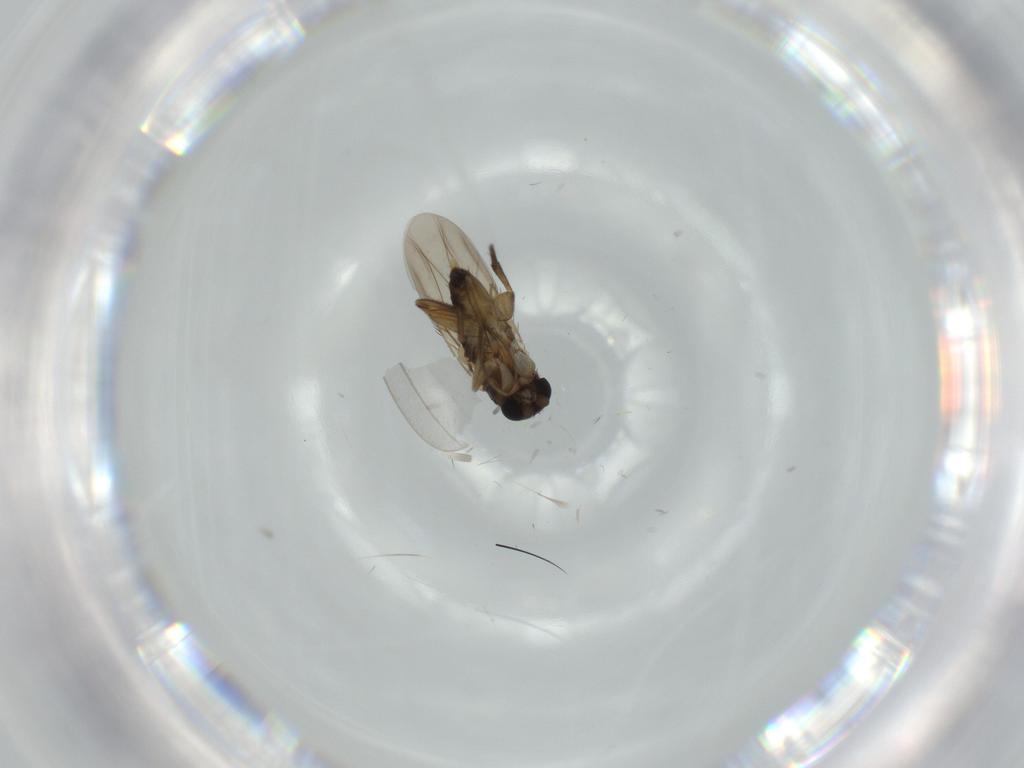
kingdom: Animalia
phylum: Arthropoda
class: Insecta
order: Diptera
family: Phoridae
